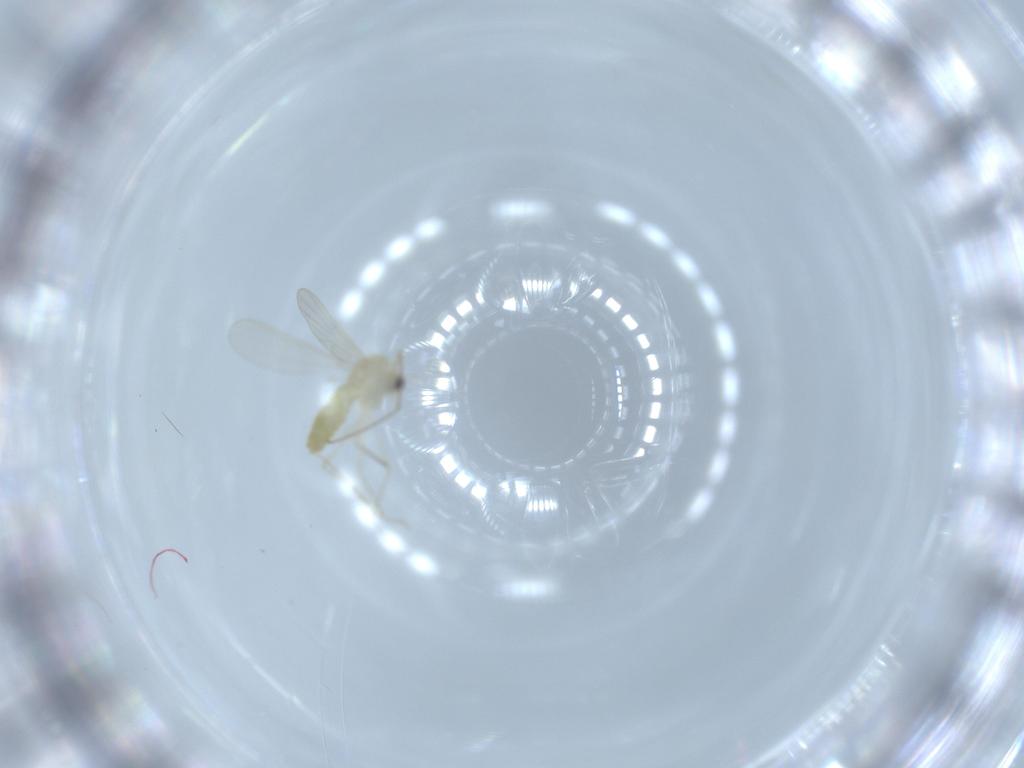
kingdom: Animalia
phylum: Arthropoda
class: Insecta
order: Diptera
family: Chironomidae
